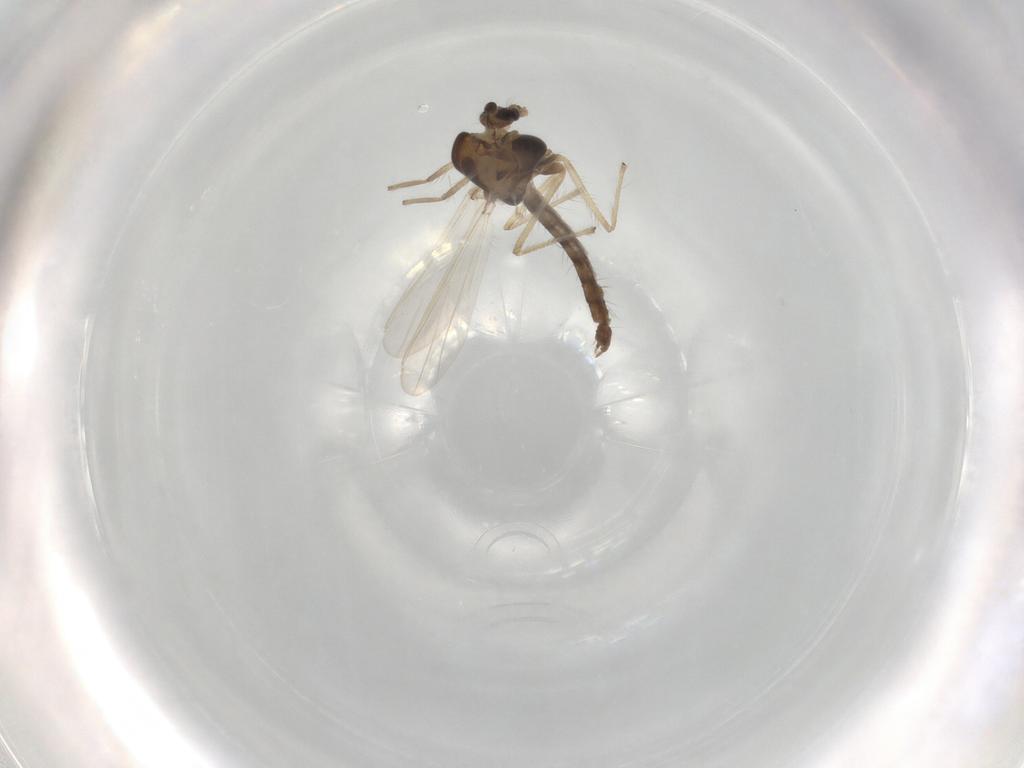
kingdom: Animalia
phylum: Arthropoda
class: Insecta
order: Diptera
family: Chironomidae
